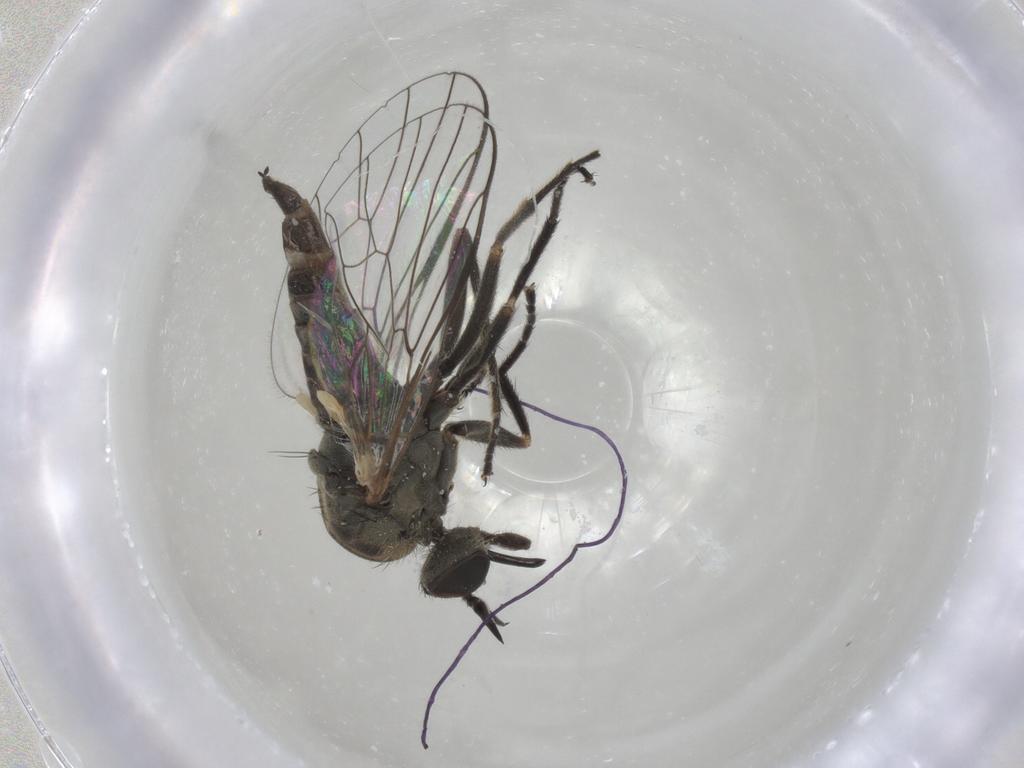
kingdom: Animalia
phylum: Arthropoda
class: Insecta
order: Diptera
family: Empididae
